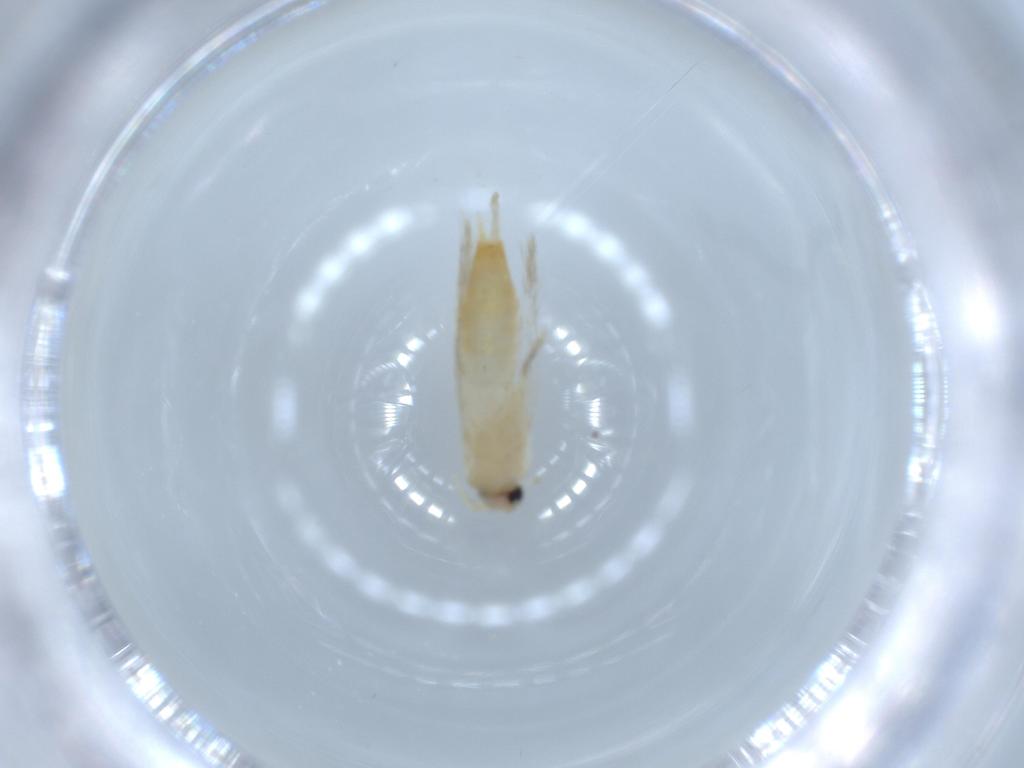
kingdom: Animalia
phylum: Arthropoda
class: Insecta
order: Lepidoptera
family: Nepticulidae
